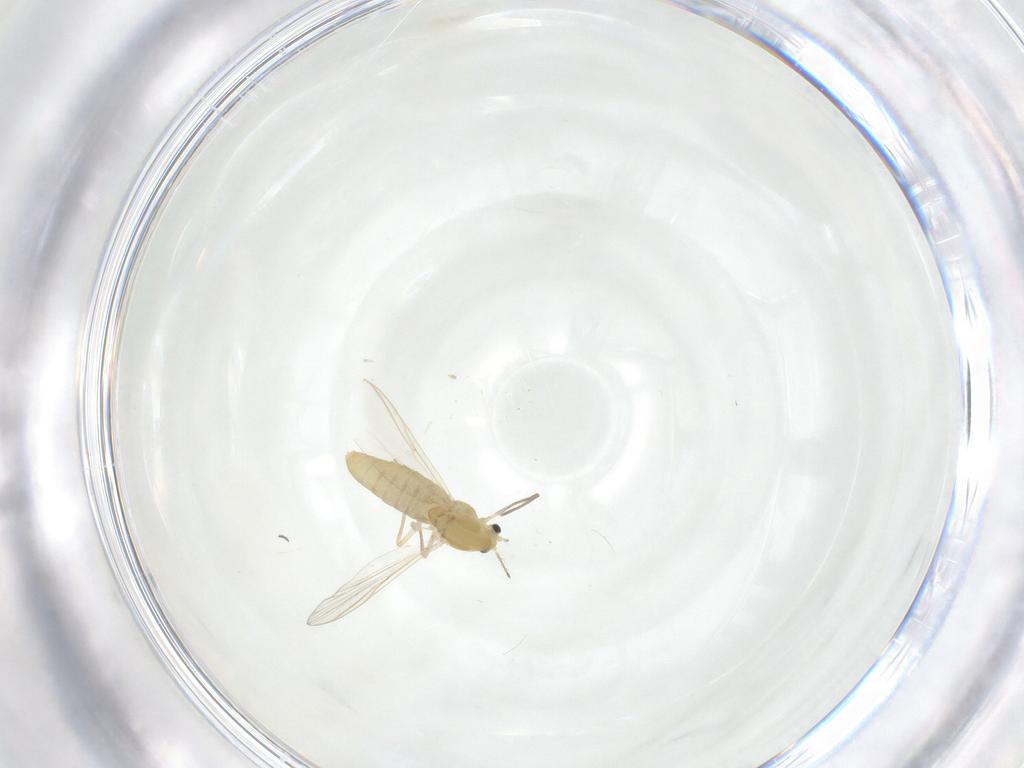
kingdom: Animalia
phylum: Arthropoda
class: Insecta
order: Diptera
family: Chironomidae
